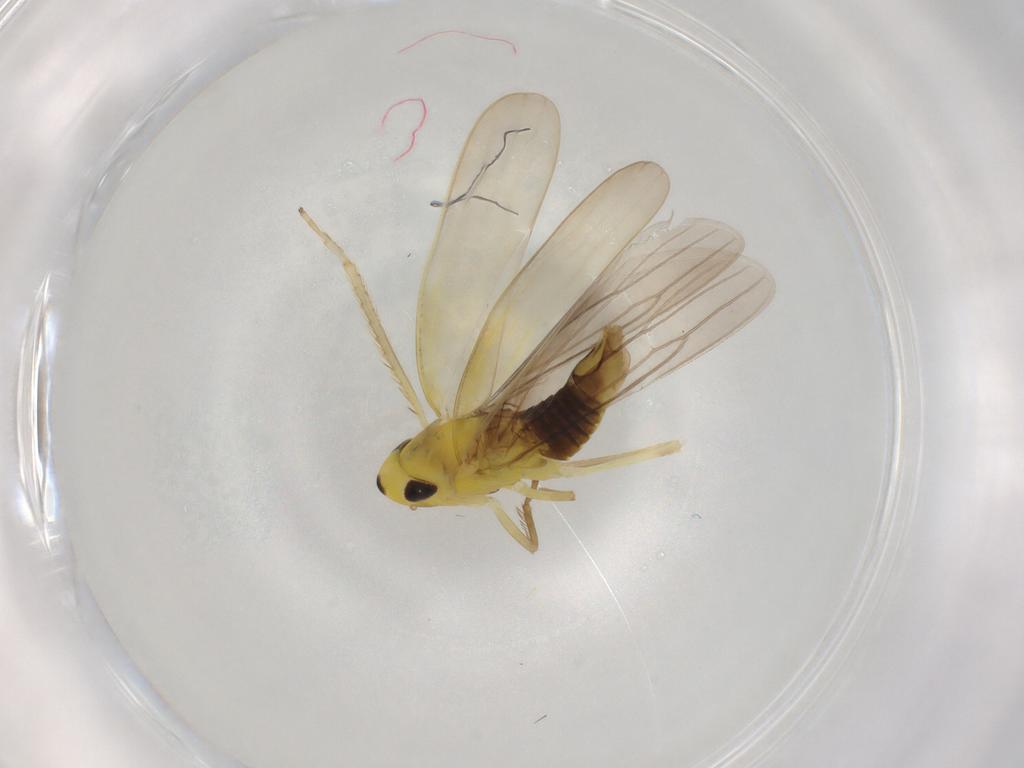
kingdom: Animalia
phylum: Arthropoda
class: Insecta
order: Hemiptera
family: Cicadellidae
